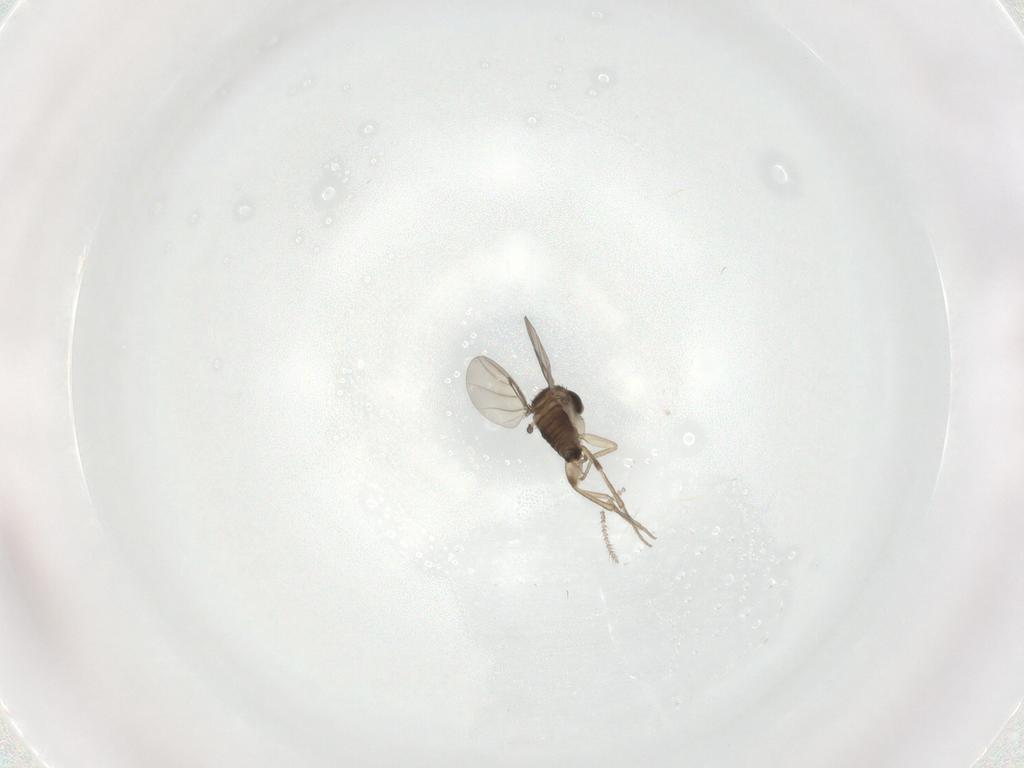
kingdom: Animalia
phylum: Arthropoda
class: Insecta
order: Diptera
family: Phoridae
